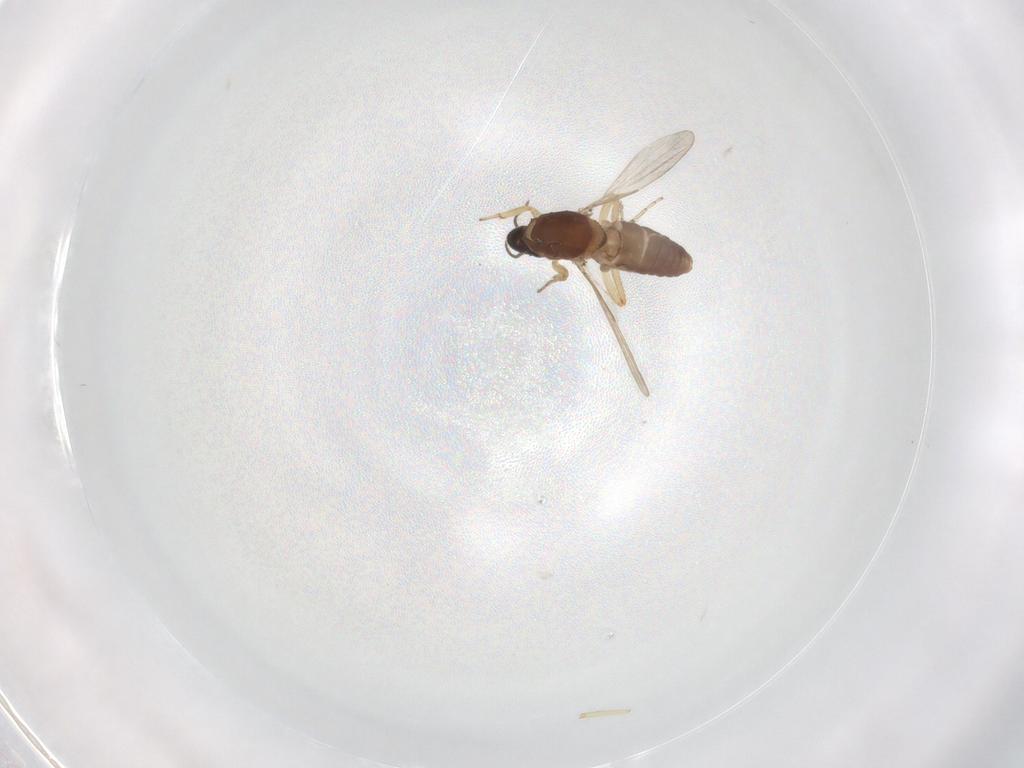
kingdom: Animalia
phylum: Arthropoda
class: Insecta
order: Diptera
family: Ceratopogonidae
